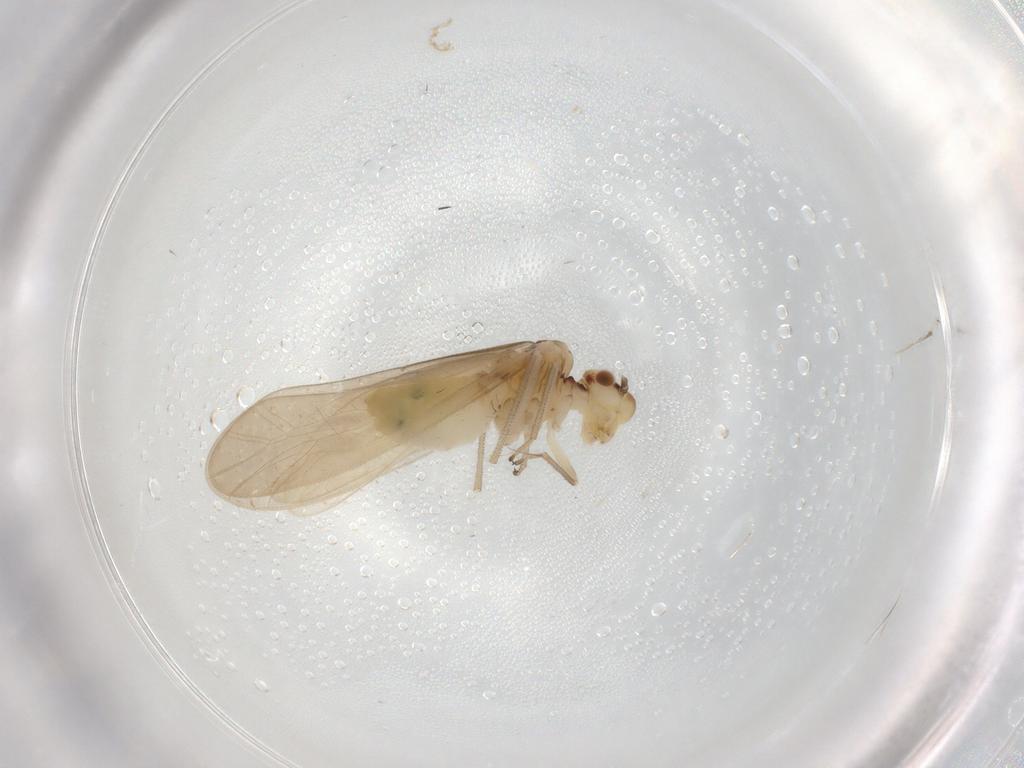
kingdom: Animalia
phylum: Arthropoda
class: Insecta
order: Psocodea
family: Caeciliusidae
